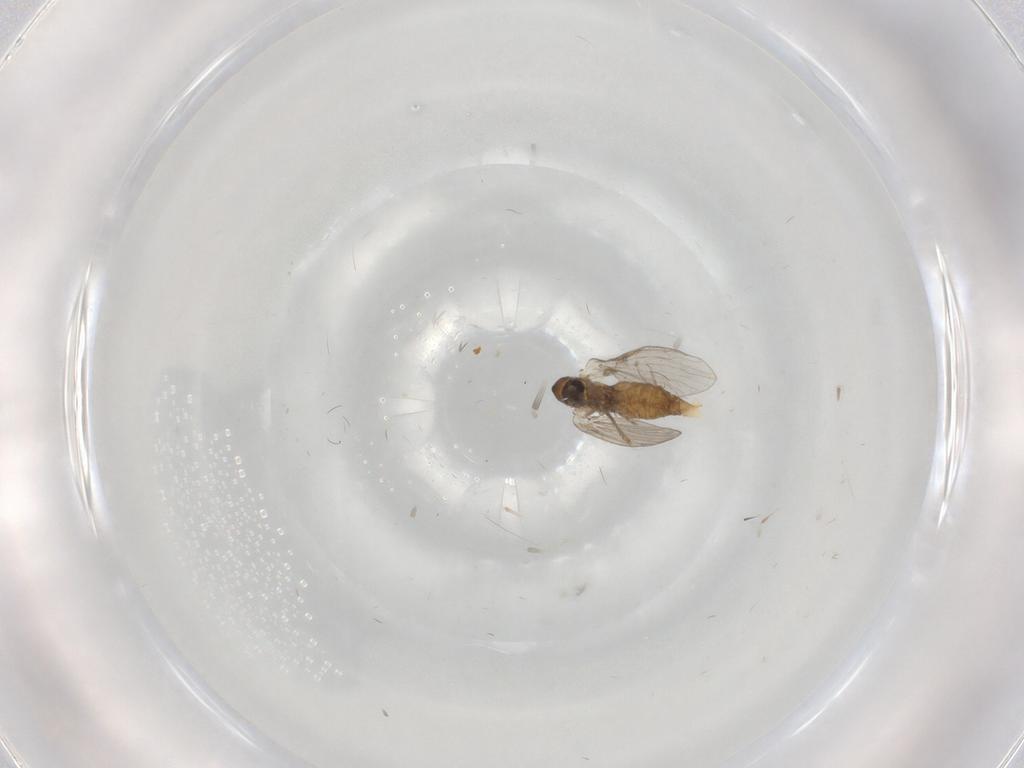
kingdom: Animalia
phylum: Arthropoda
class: Insecta
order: Diptera
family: Psychodidae
